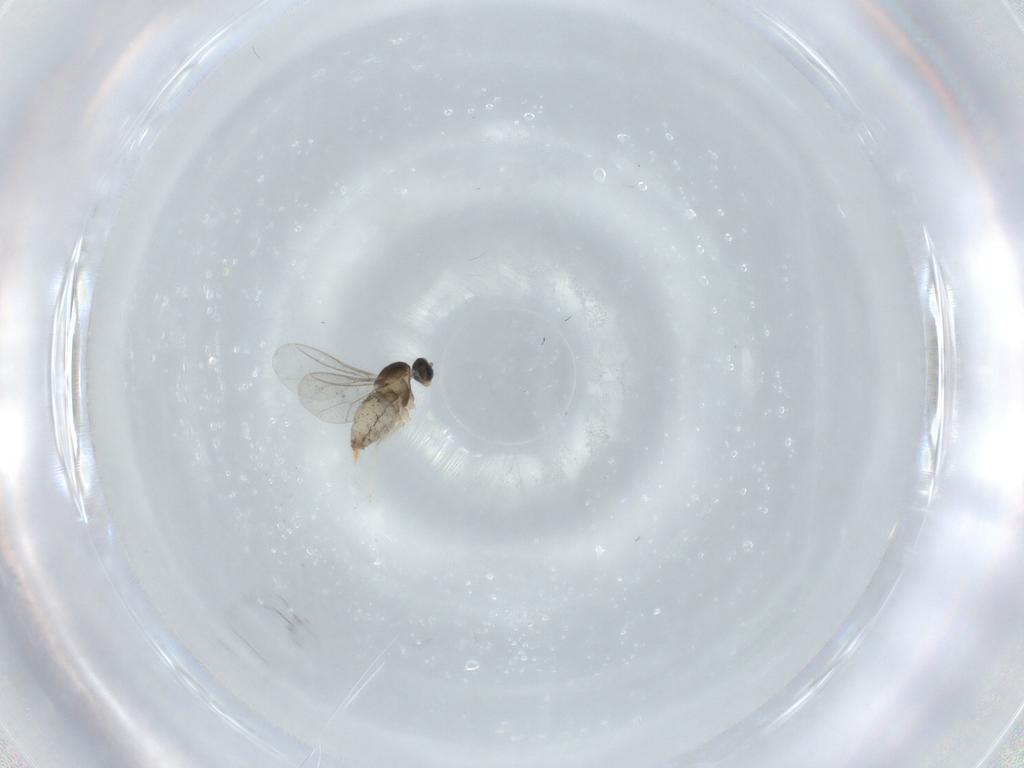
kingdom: Animalia
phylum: Arthropoda
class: Insecta
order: Diptera
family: Cecidomyiidae
